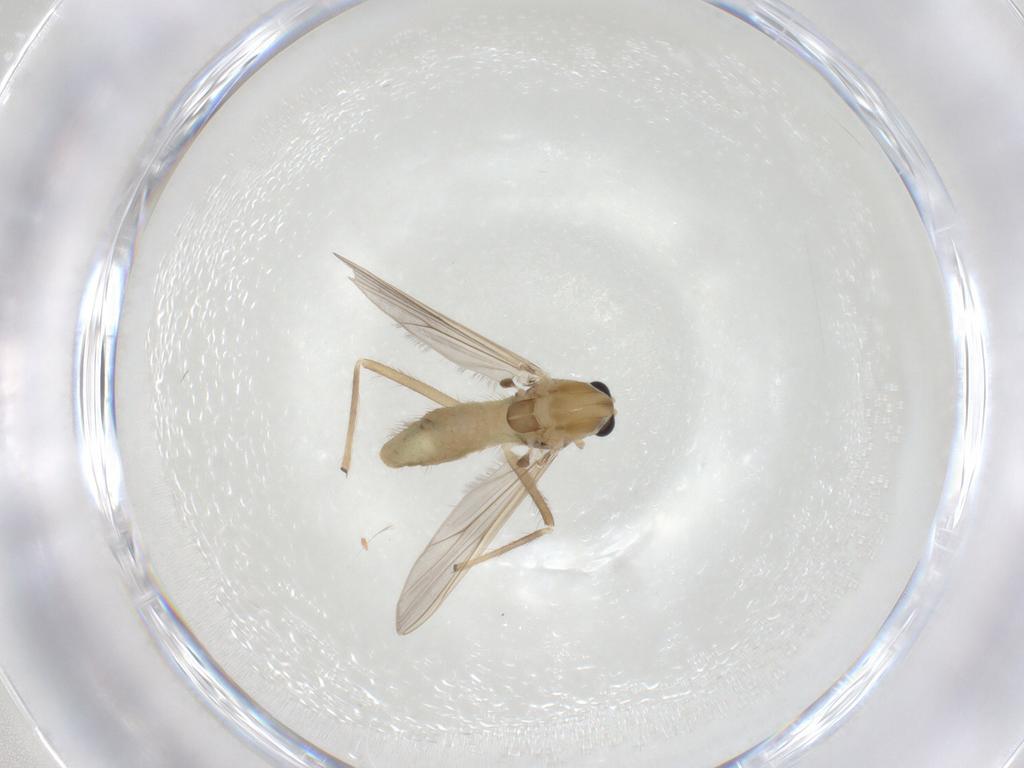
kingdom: Animalia
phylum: Arthropoda
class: Insecta
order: Diptera
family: Chironomidae
